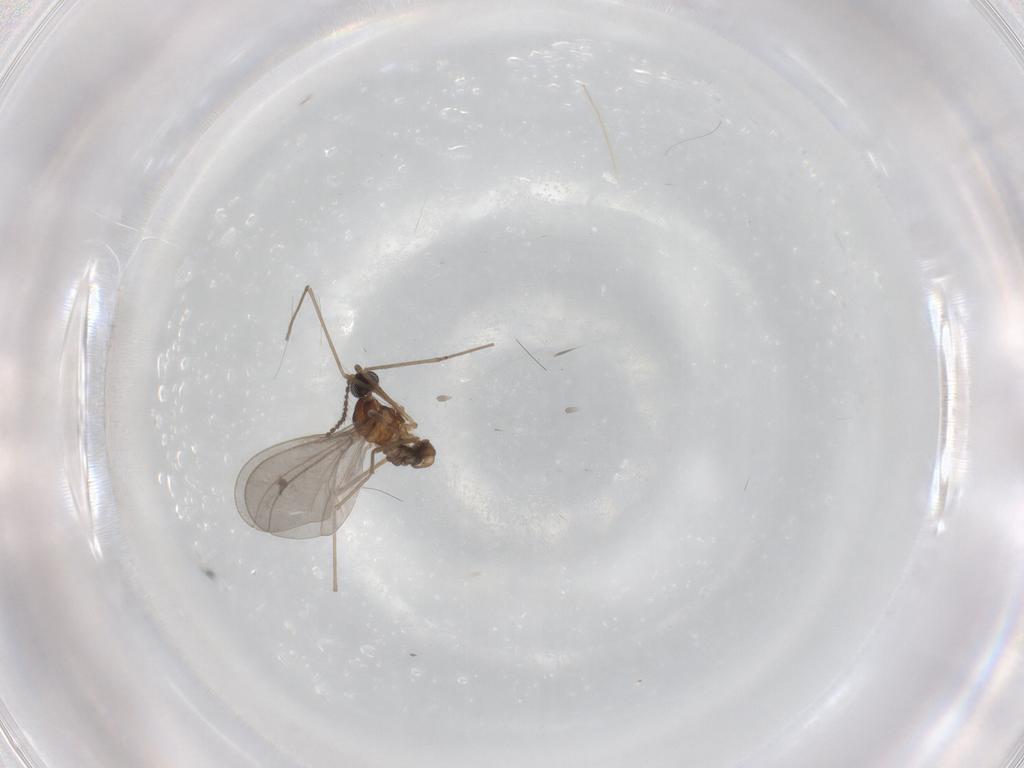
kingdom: Animalia
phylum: Arthropoda
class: Insecta
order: Diptera
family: Cecidomyiidae
